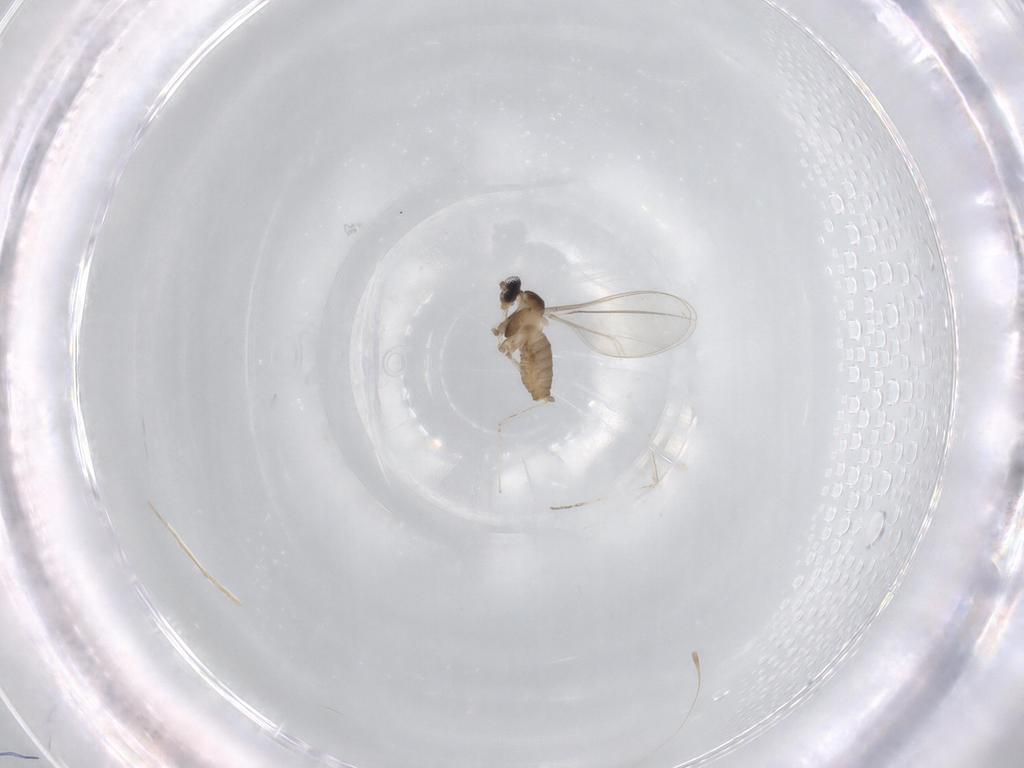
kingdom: Animalia
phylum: Arthropoda
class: Insecta
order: Diptera
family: Cecidomyiidae
